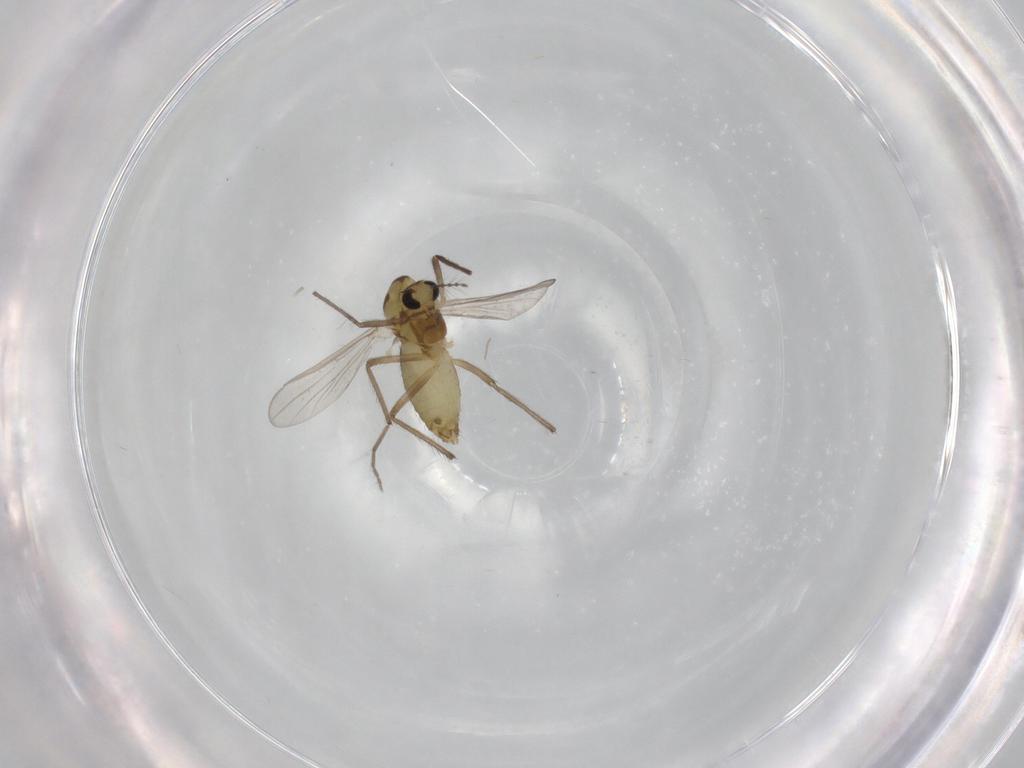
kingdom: Animalia
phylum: Arthropoda
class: Insecta
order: Diptera
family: Chironomidae
